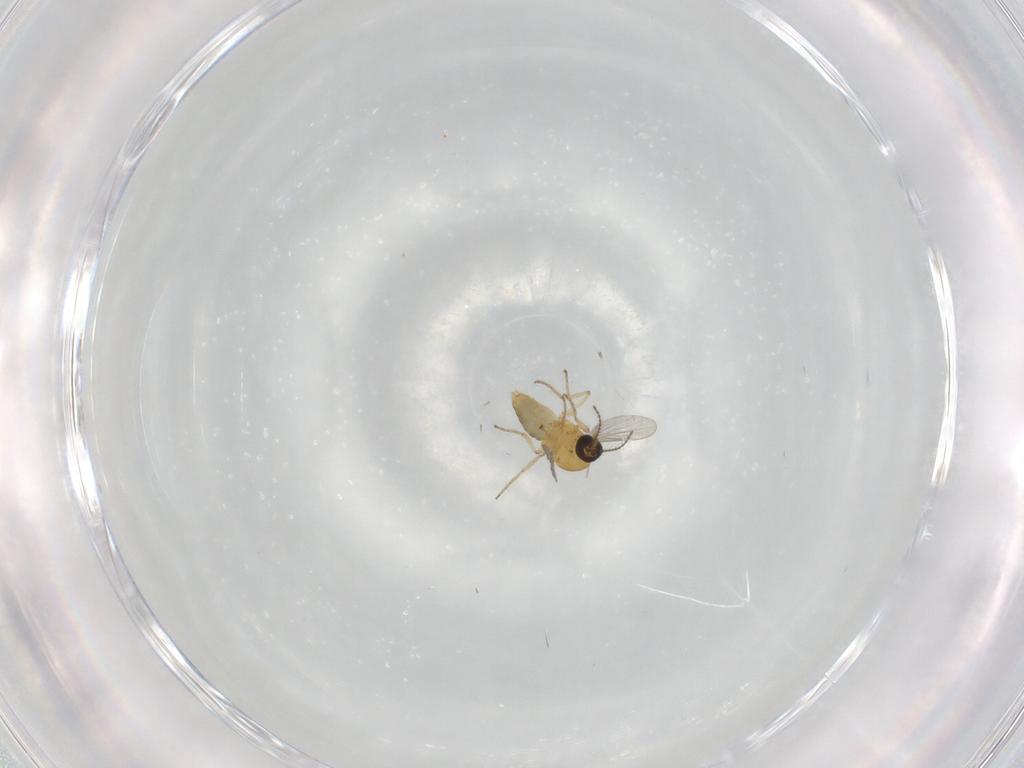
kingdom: Animalia
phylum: Arthropoda
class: Insecta
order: Diptera
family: Ceratopogonidae
